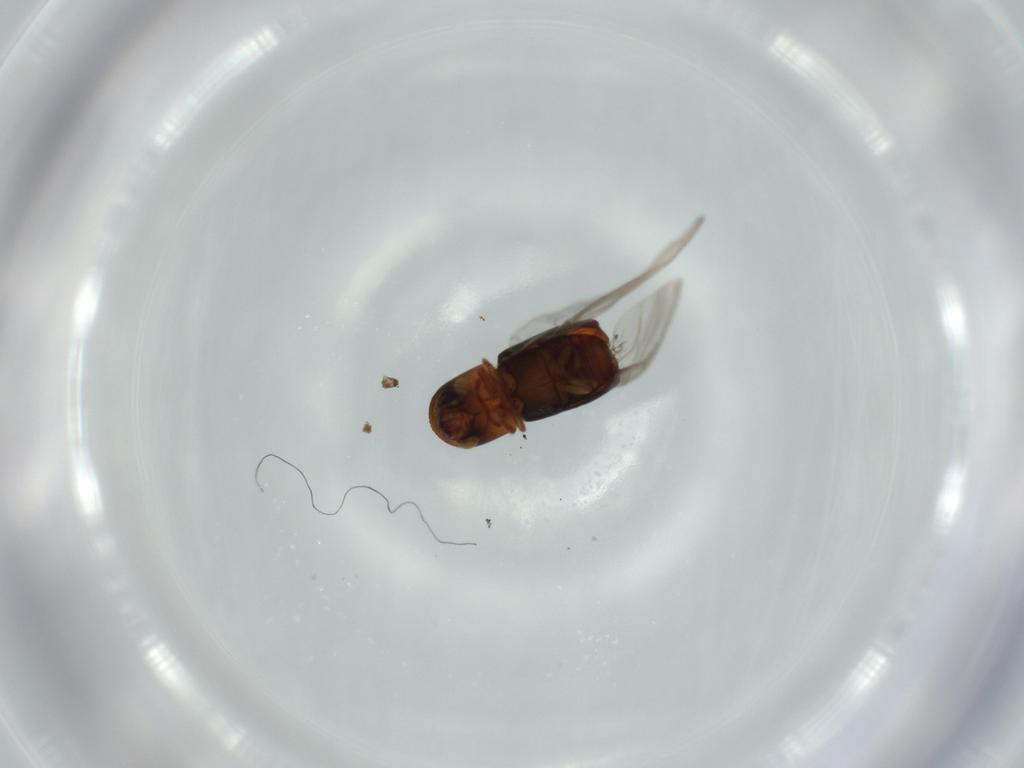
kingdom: Animalia
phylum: Arthropoda
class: Insecta
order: Coleoptera
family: Curculionidae
